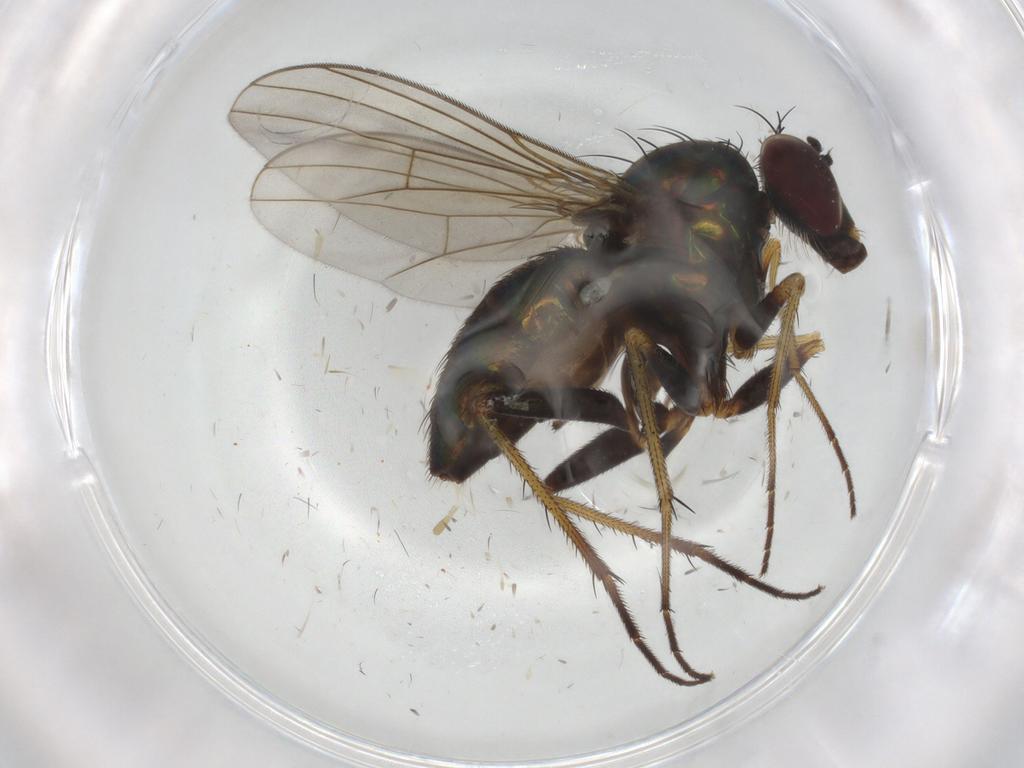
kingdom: Animalia
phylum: Arthropoda
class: Insecta
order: Diptera
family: Dolichopodidae
